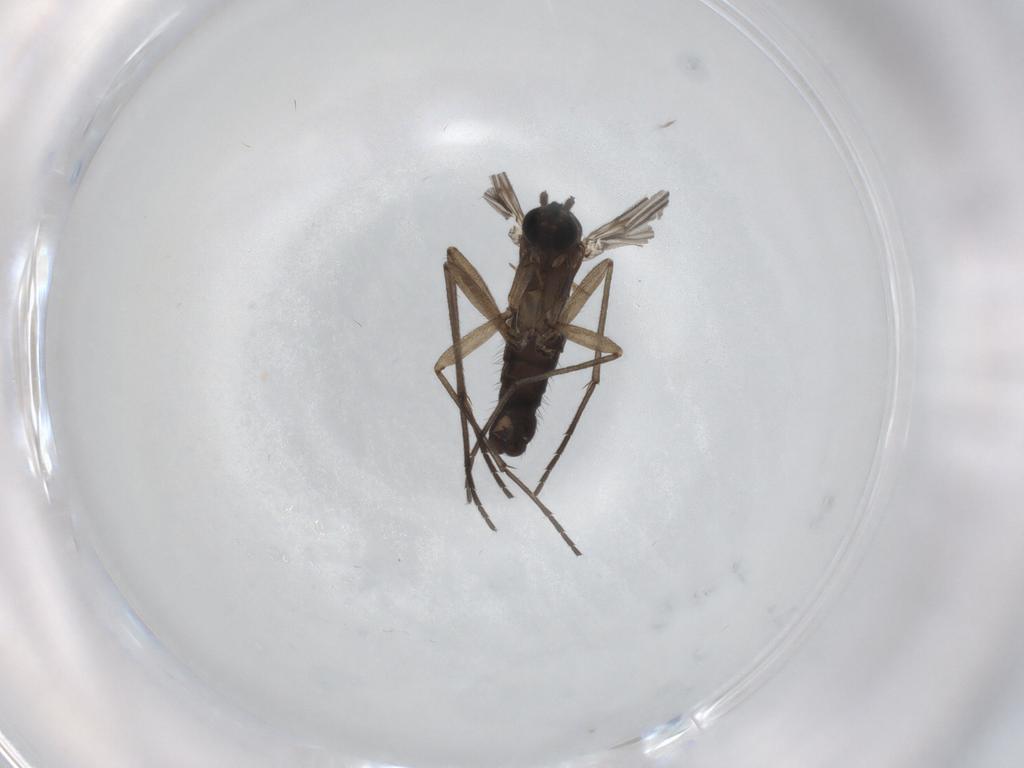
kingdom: Animalia
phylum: Arthropoda
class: Insecta
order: Diptera
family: Sciaridae
